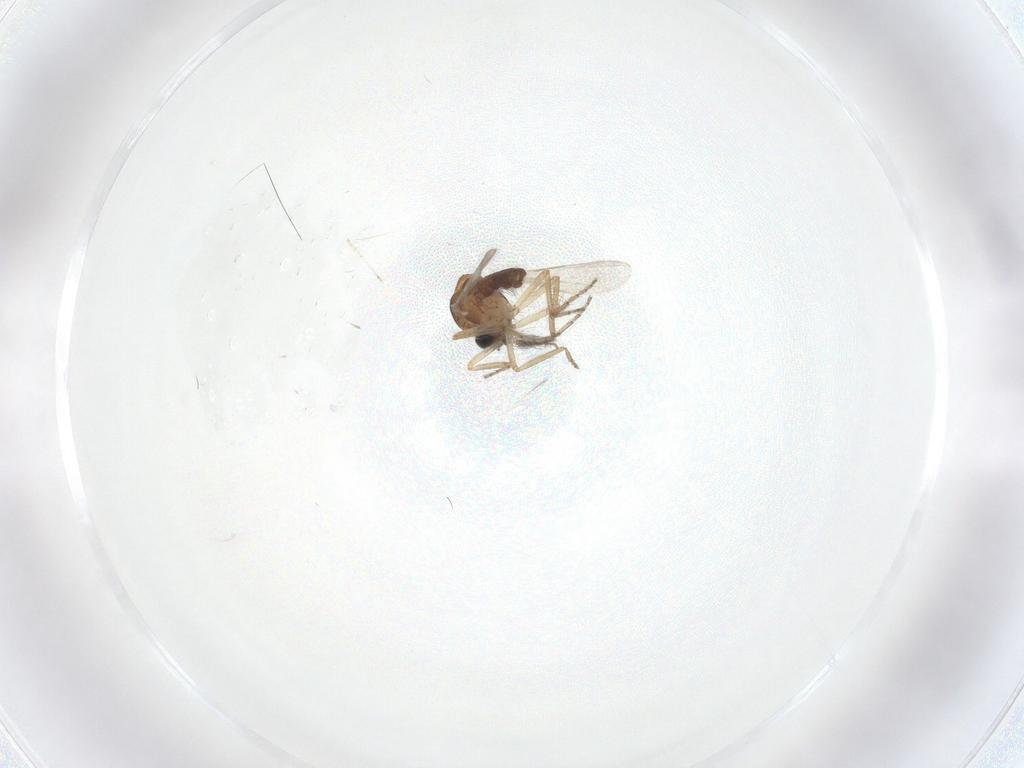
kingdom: Animalia
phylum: Arthropoda
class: Insecta
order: Diptera
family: Ceratopogonidae
